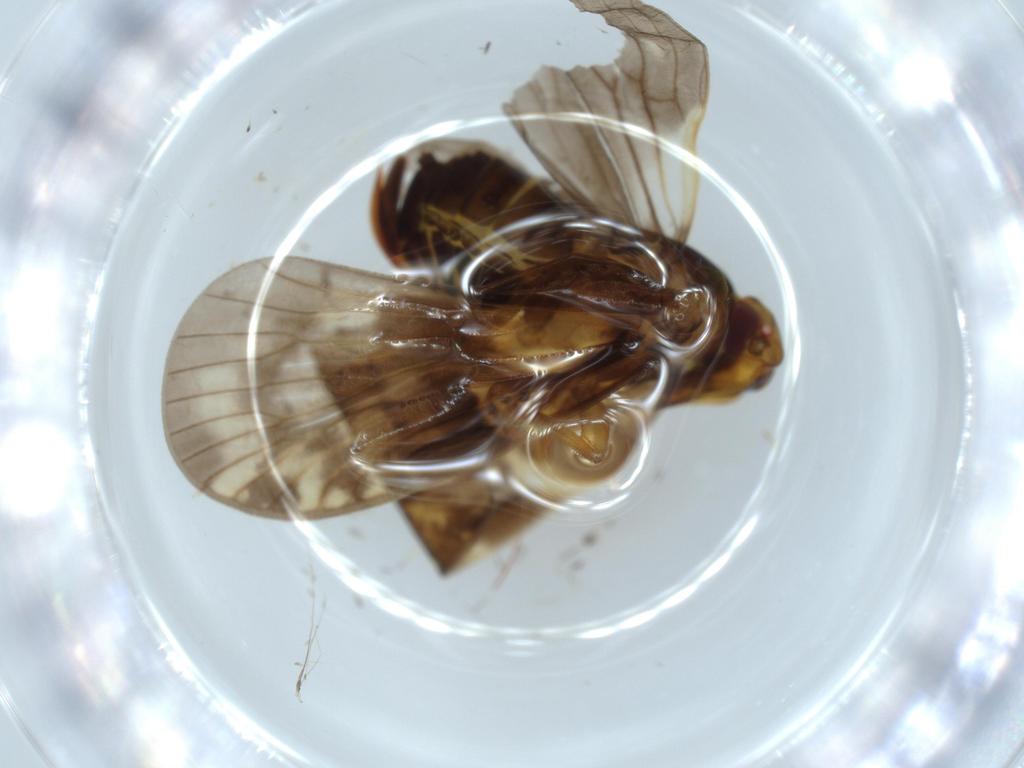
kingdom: Animalia
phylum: Arthropoda
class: Insecta
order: Hemiptera
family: Cixiidae
